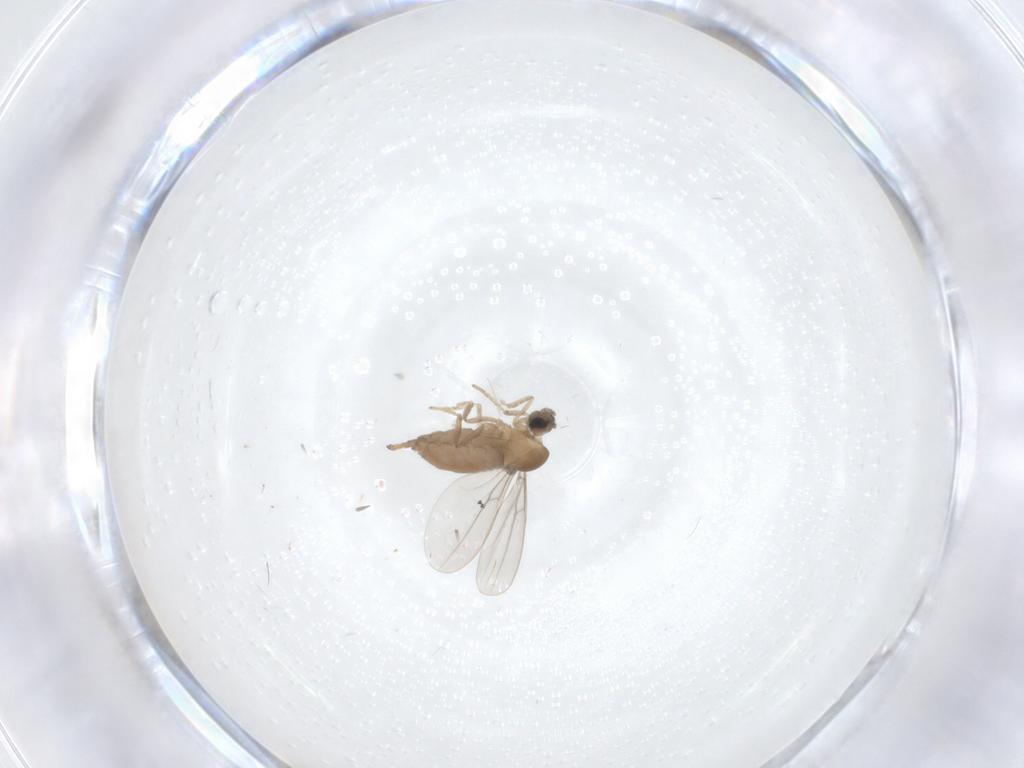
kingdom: Animalia
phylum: Arthropoda
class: Insecta
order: Diptera
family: Cecidomyiidae
